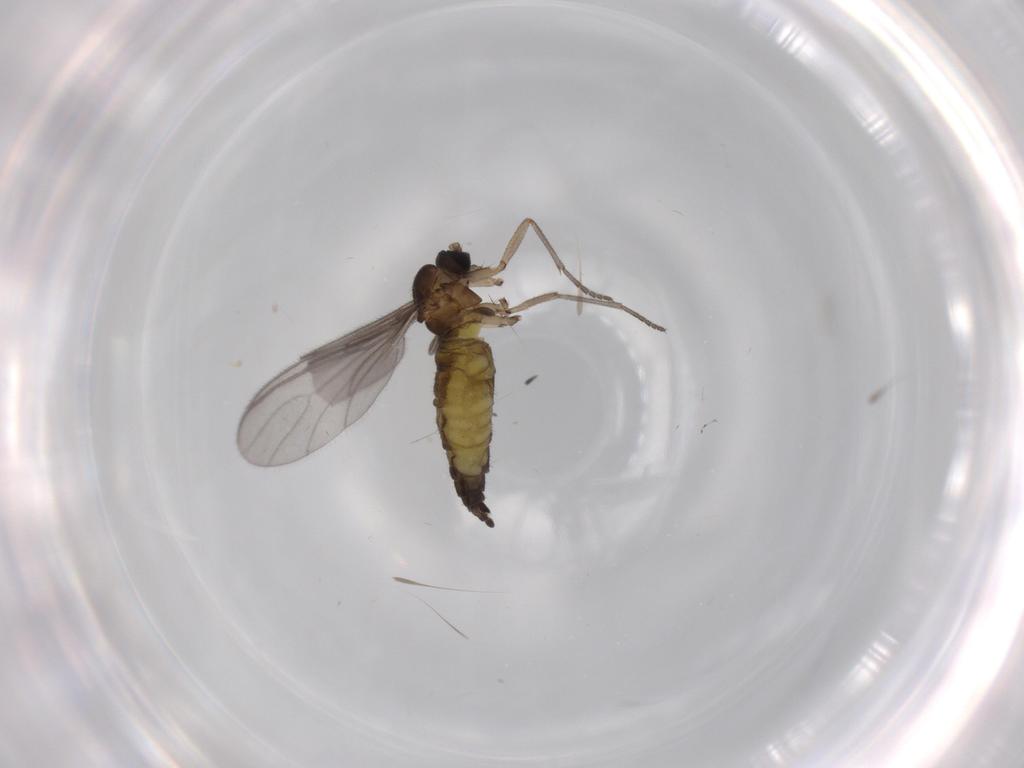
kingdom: Animalia
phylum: Arthropoda
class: Insecta
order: Diptera
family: Sciaridae
